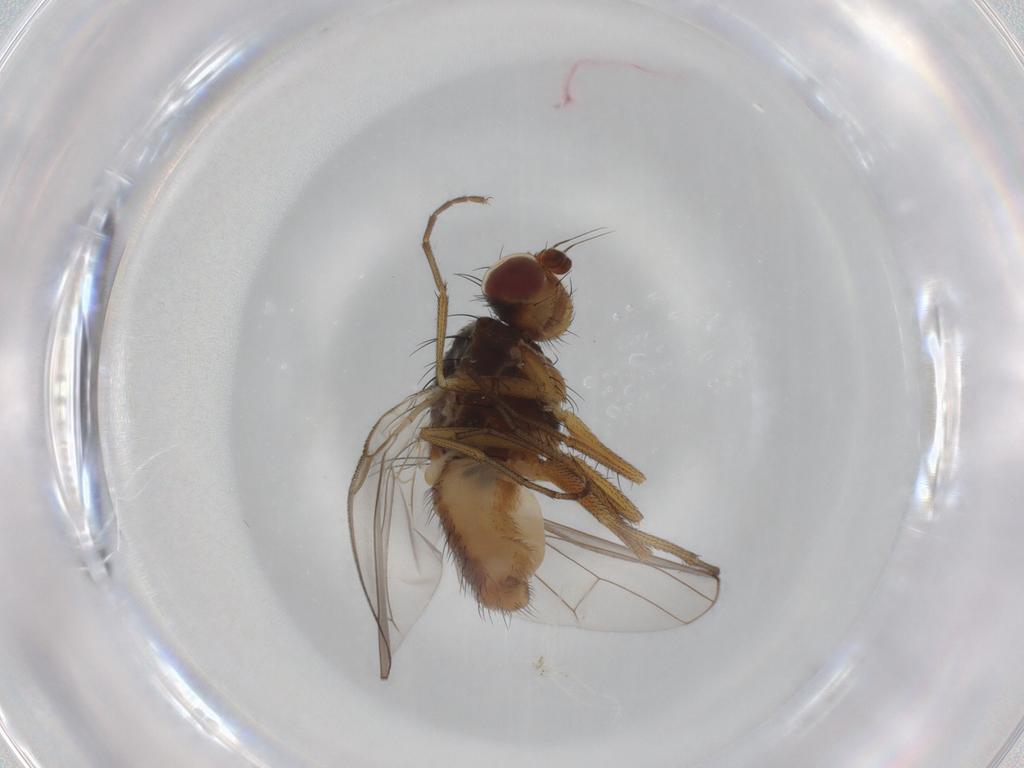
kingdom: Animalia
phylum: Arthropoda
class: Insecta
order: Diptera
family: Heleomyzidae
